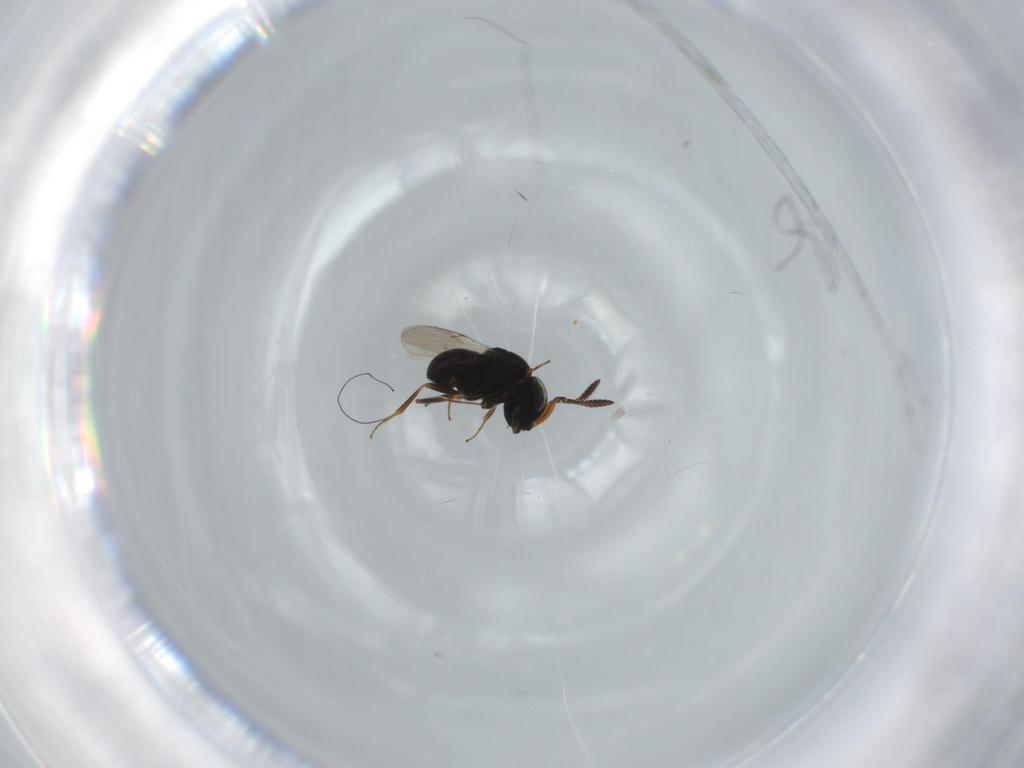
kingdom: Animalia
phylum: Arthropoda
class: Insecta
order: Hymenoptera
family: Scelionidae
